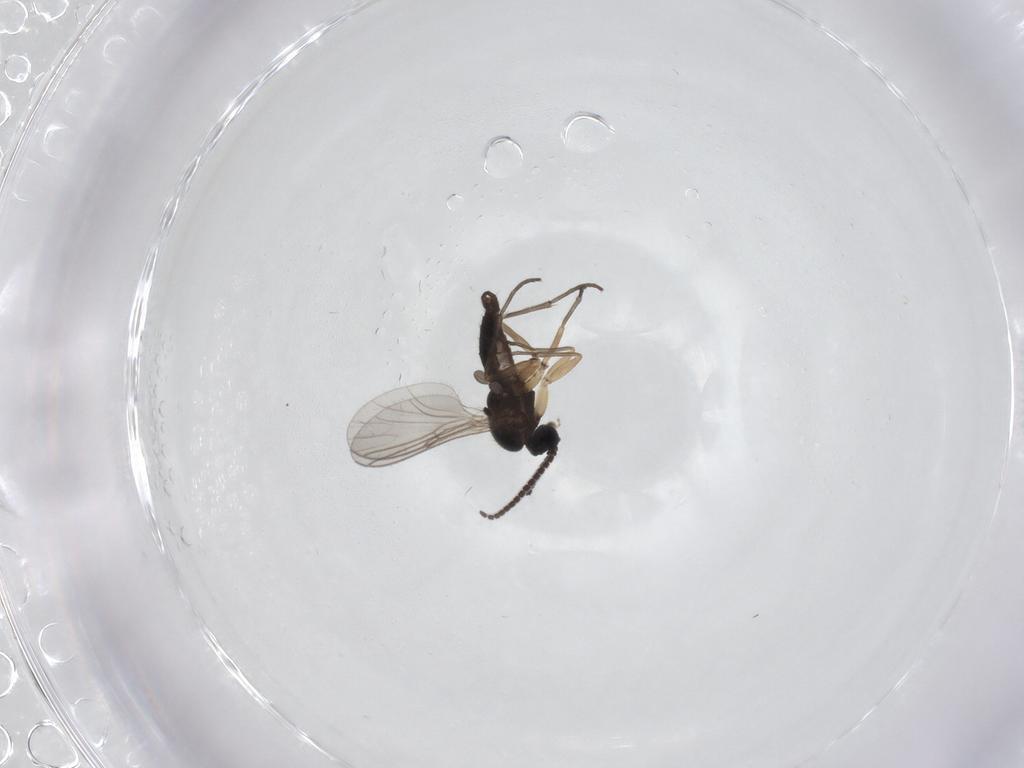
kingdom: Animalia
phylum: Arthropoda
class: Insecta
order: Diptera
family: Sciaridae
